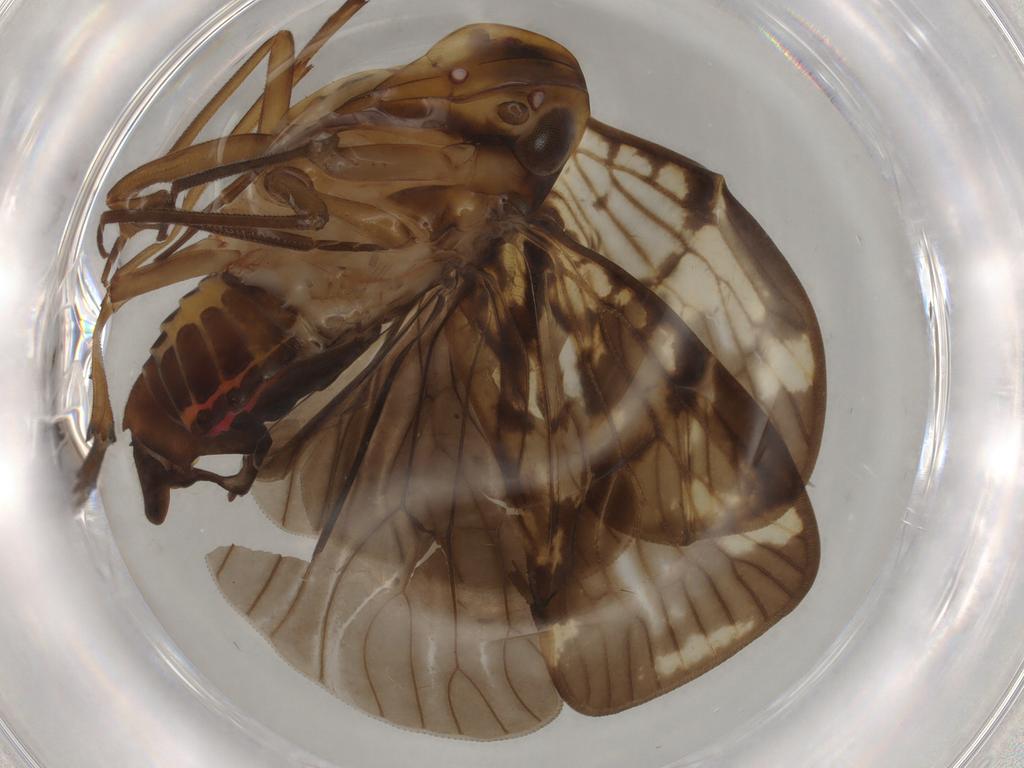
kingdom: Animalia
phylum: Arthropoda
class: Insecta
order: Hemiptera
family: Cixiidae
